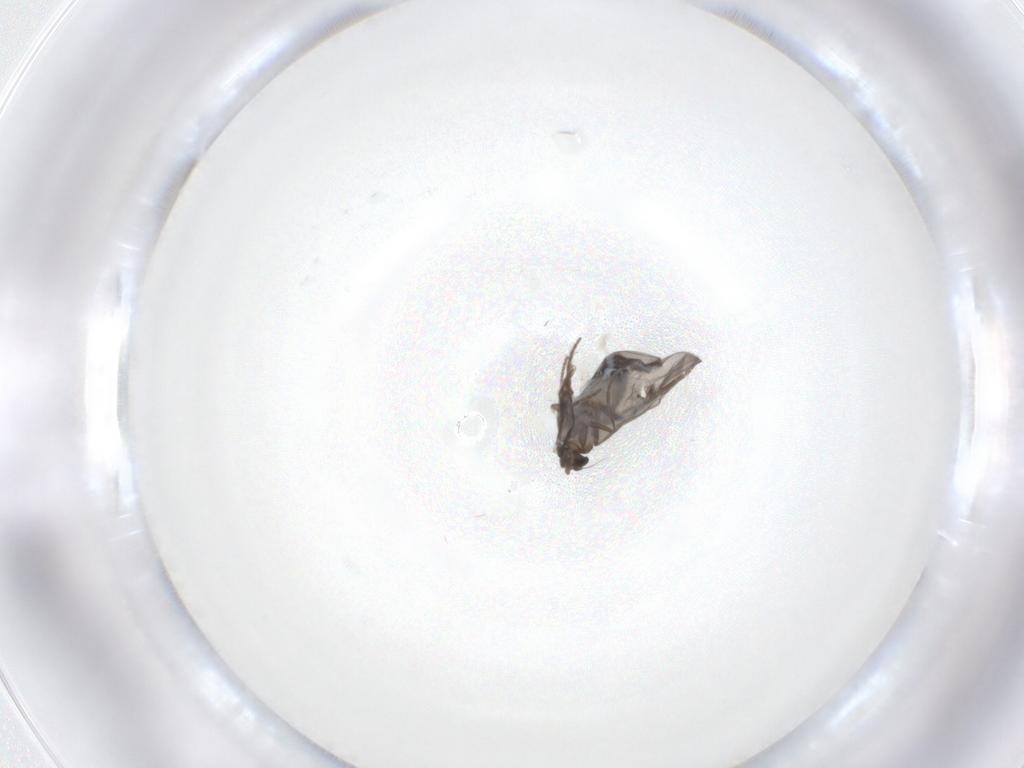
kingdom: Animalia
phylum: Arthropoda
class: Insecta
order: Diptera
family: Phoridae
